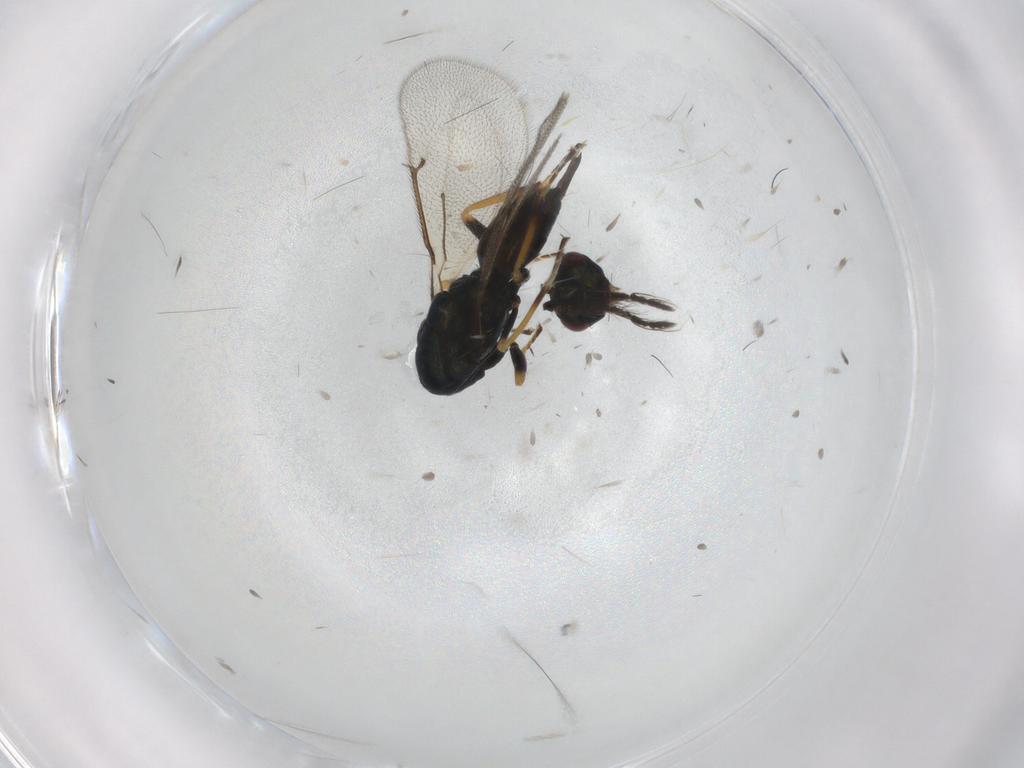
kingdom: Animalia
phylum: Arthropoda
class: Insecta
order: Hymenoptera
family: Eulophidae
